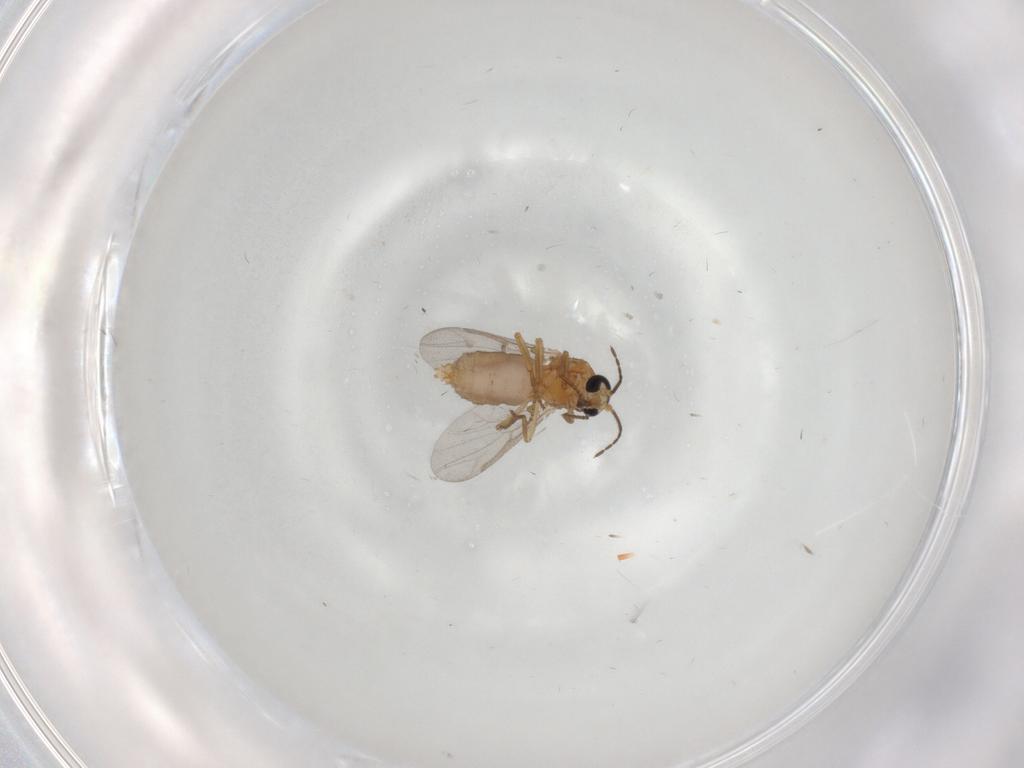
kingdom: Animalia
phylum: Arthropoda
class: Insecta
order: Diptera
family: Ceratopogonidae
